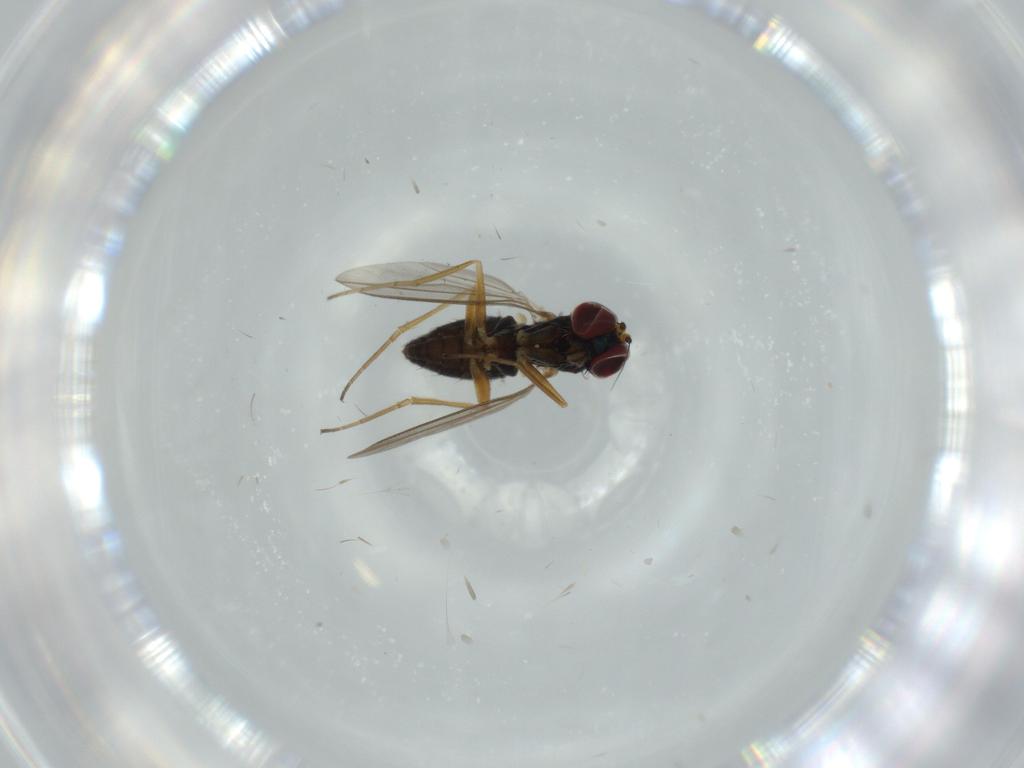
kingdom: Animalia
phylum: Arthropoda
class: Insecta
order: Diptera
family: Dolichopodidae
